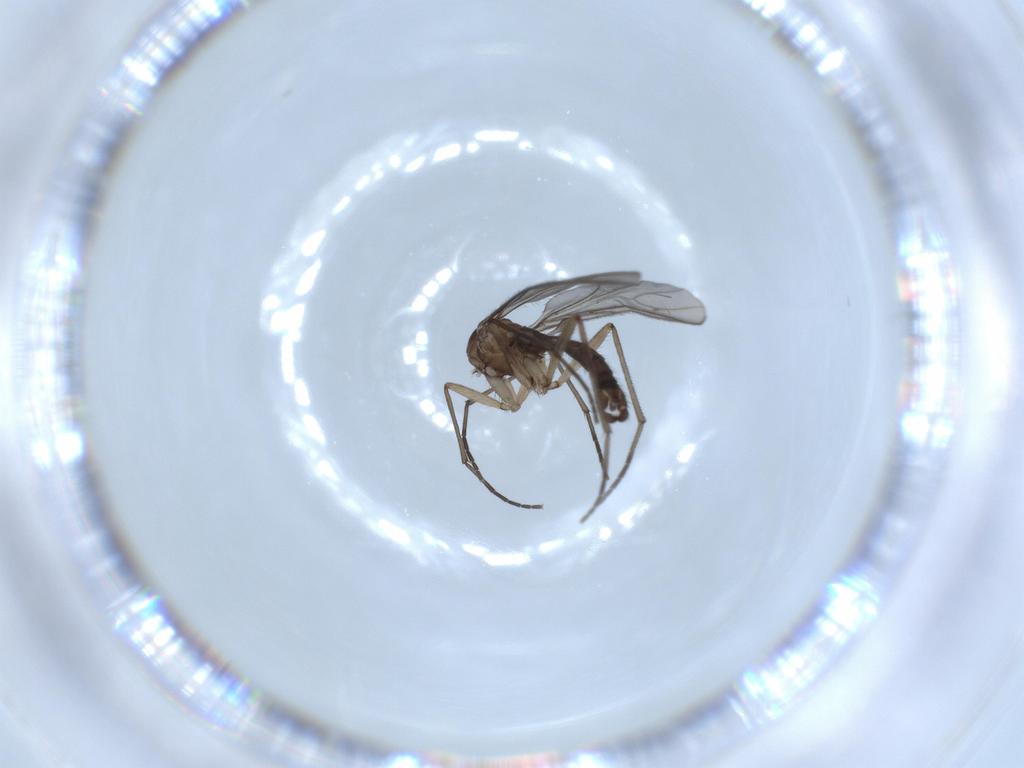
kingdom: Animalia
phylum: Arthropoda
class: Insecta
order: Diptera
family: Sciaridae
